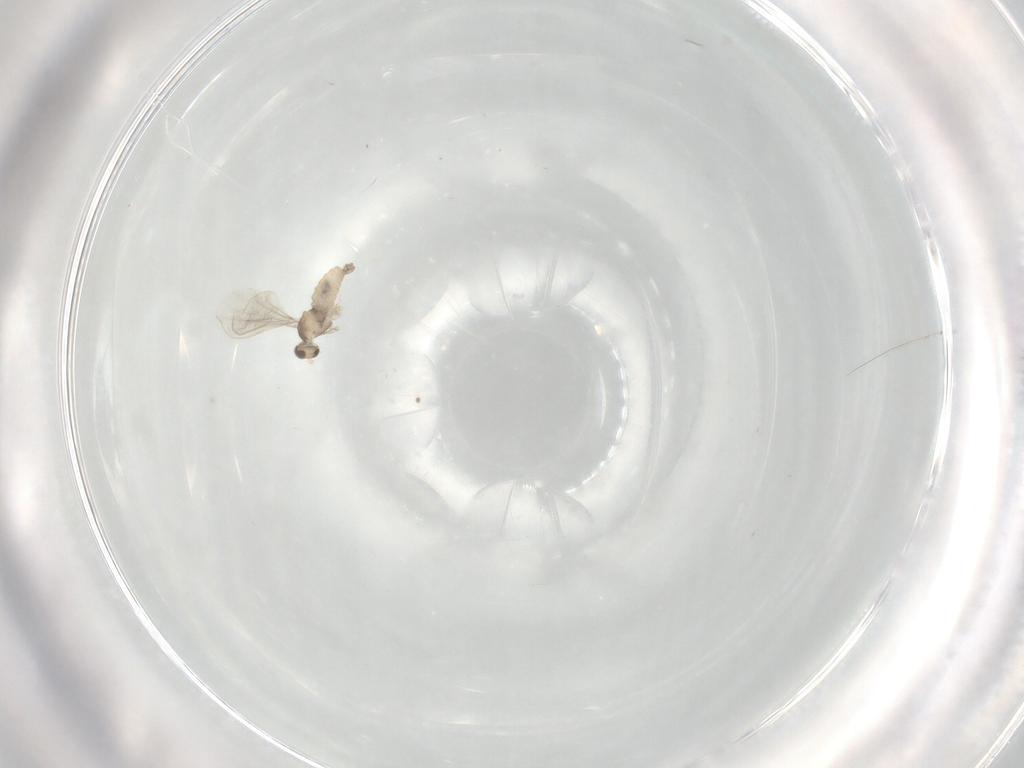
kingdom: Animalia
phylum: Arthropoda
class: Insecta
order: Diptera
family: Cecidomyiidae
